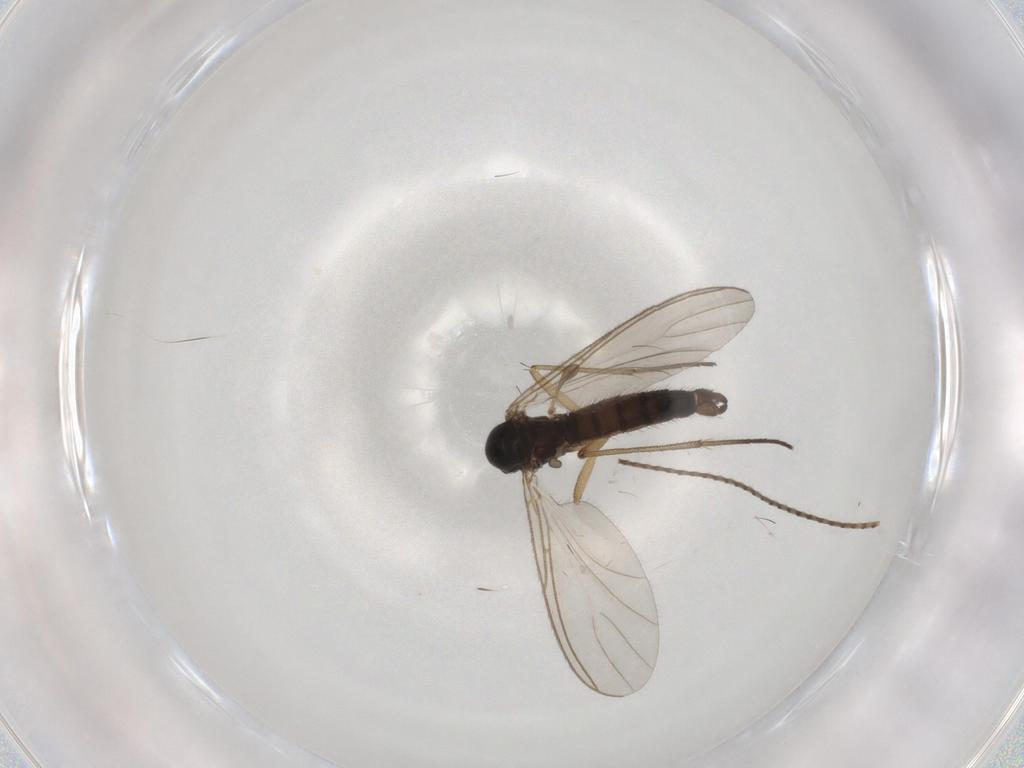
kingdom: Animalia
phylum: Arthropoda
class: Insecta
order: Diptera
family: Sciaridae
